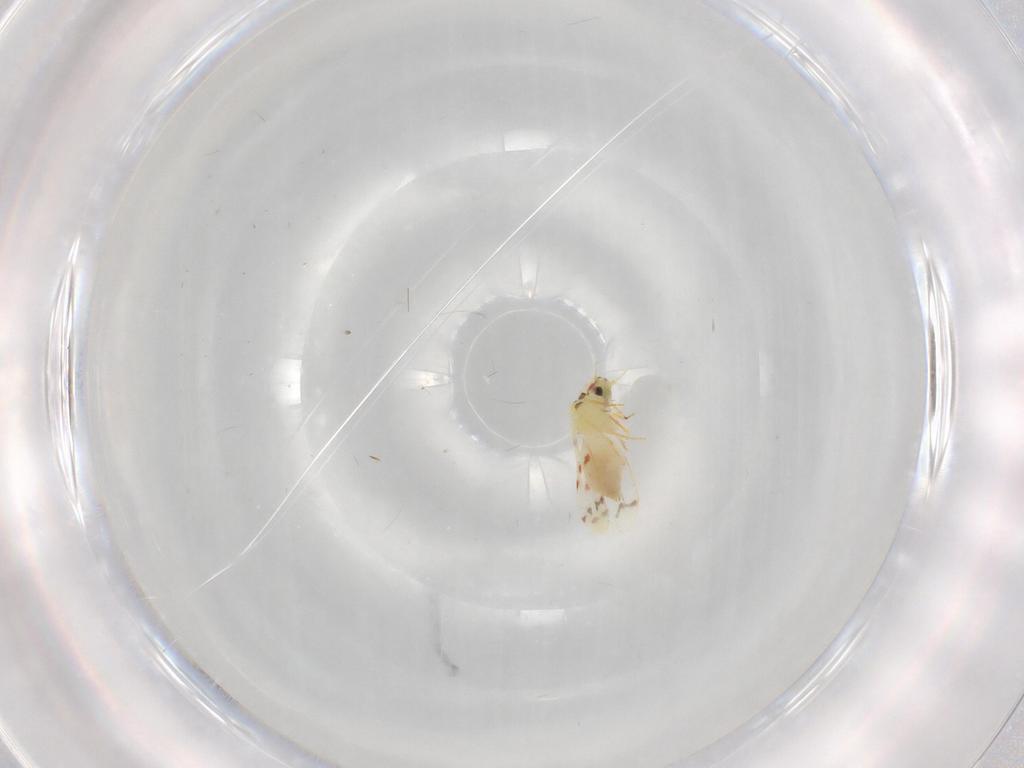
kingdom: Animalia
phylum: Arthropoda
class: Insecta
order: Hemiptera
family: Aleyrodidae
